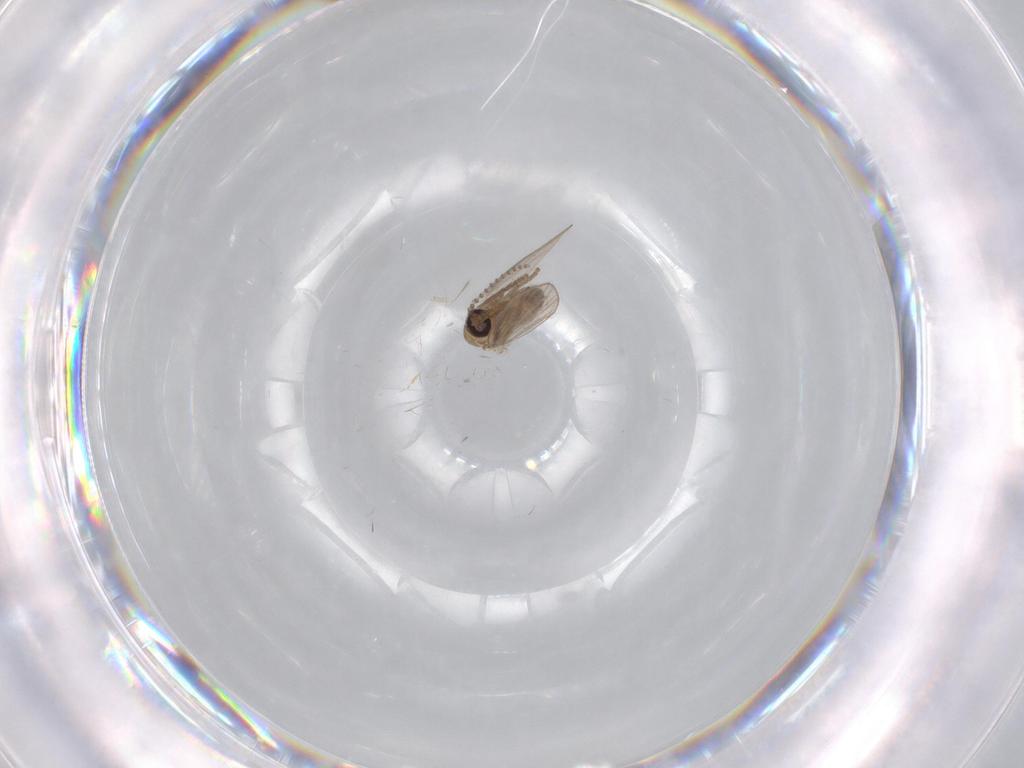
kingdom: Animalia
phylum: Arthropoda
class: Insecta
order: Diptera
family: Psychodidae
